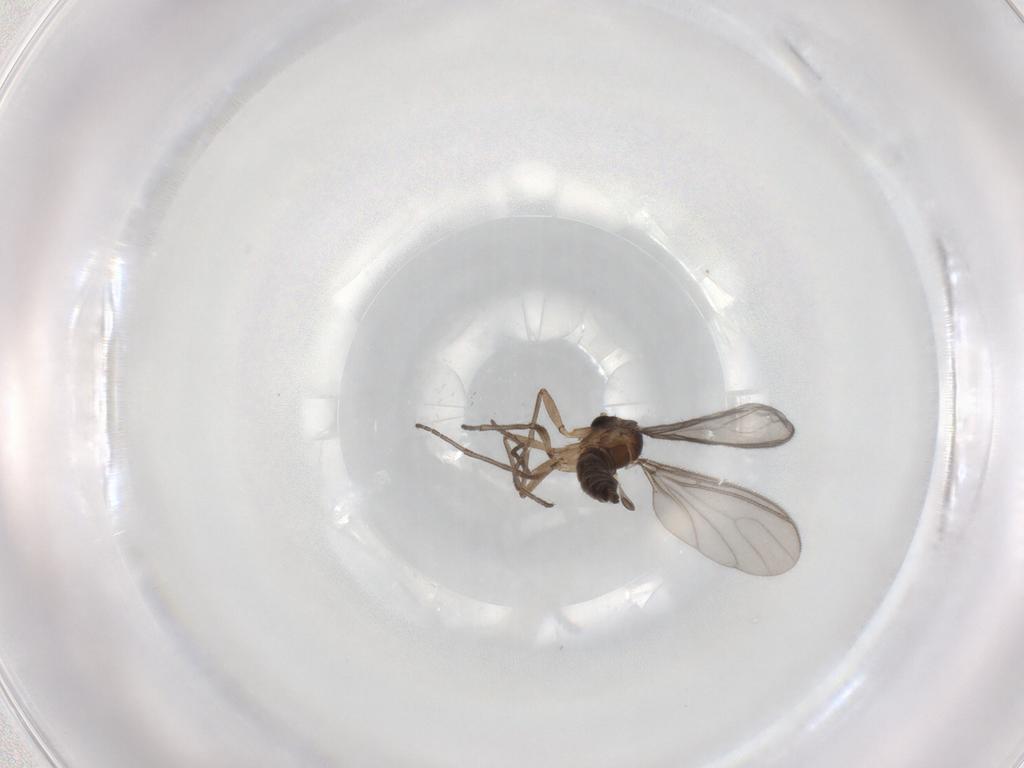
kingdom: Animalia
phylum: Arthropoda
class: Insecta
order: Diptera
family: Sciaridae
